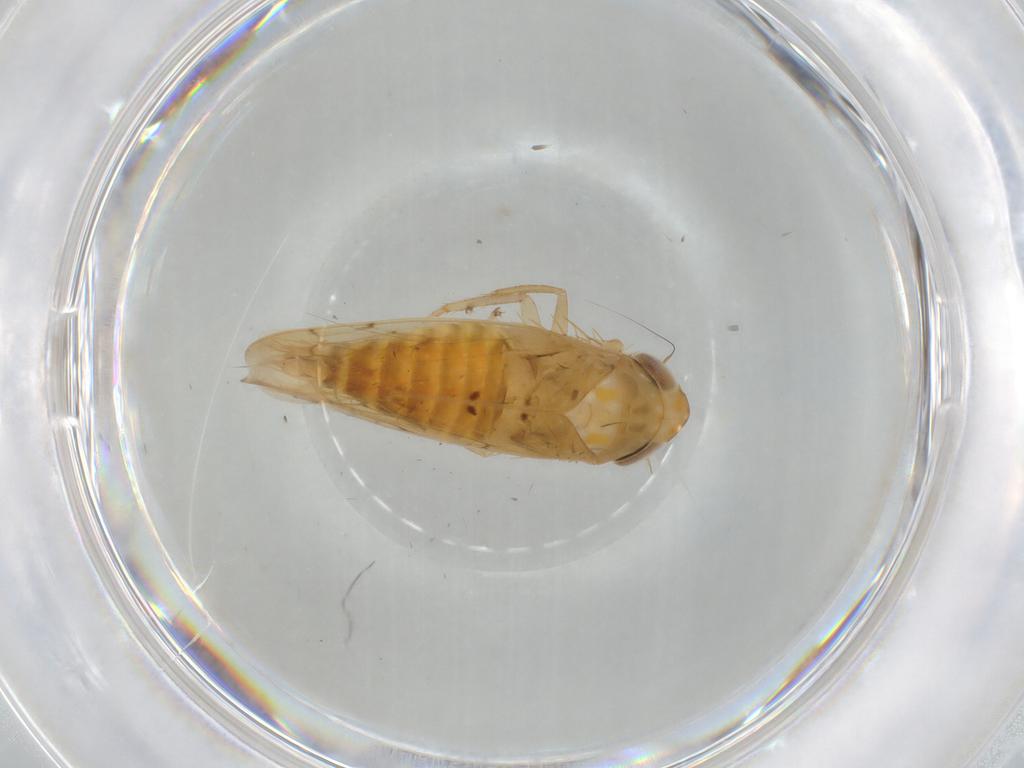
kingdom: Animalia
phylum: Arthropoda
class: Insecta
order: Hemiptera
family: Cicadellidae
